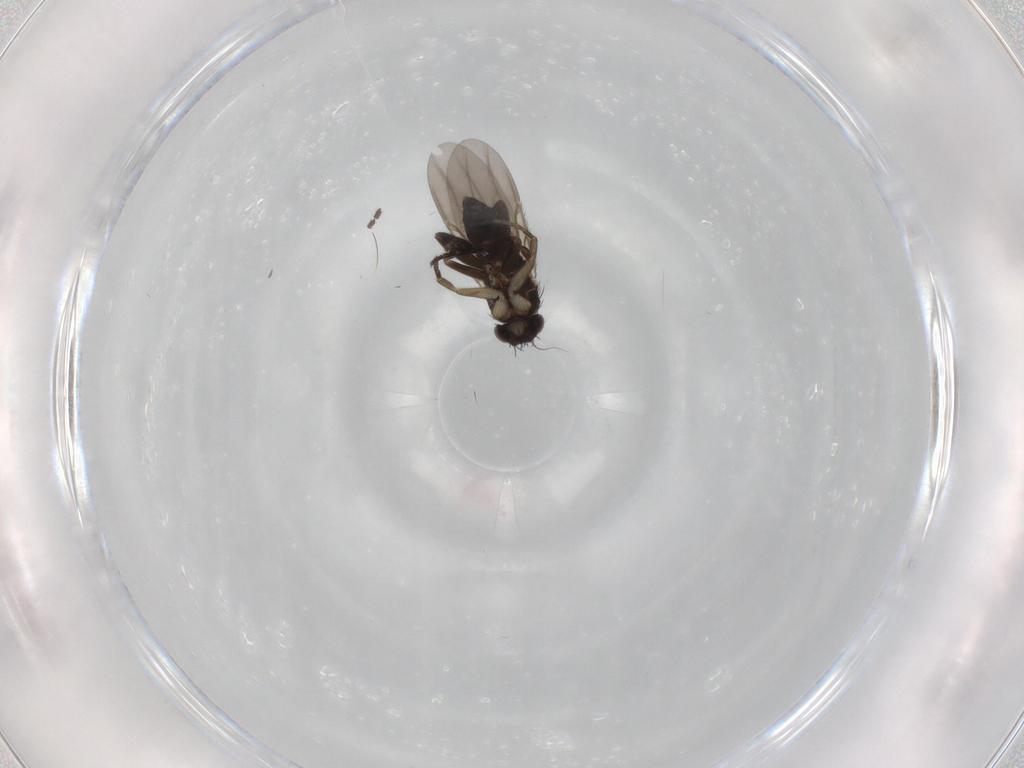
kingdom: Animalia
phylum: Arthropoda
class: Insecta
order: Diptera
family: Phoridae
